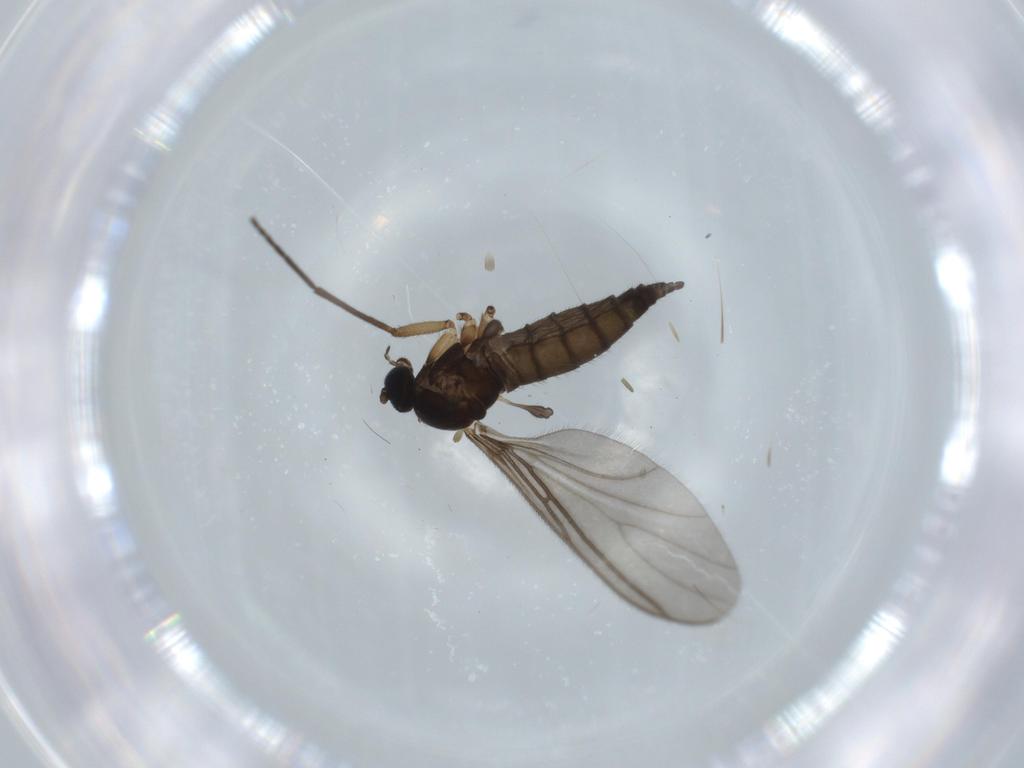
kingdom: Animalia
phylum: Arthropoda
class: Insecta
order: Diptera
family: Sciaridae
